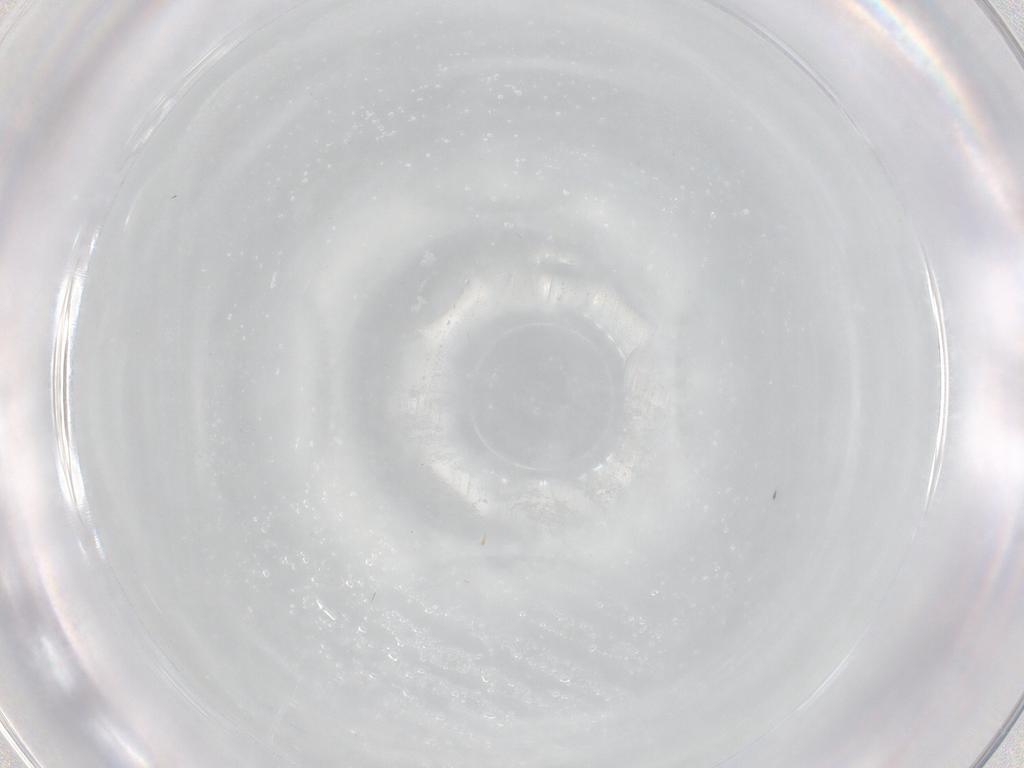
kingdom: Animalia
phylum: Arthropoda
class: Insecta
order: Diptera
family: Cecidomyiidae
